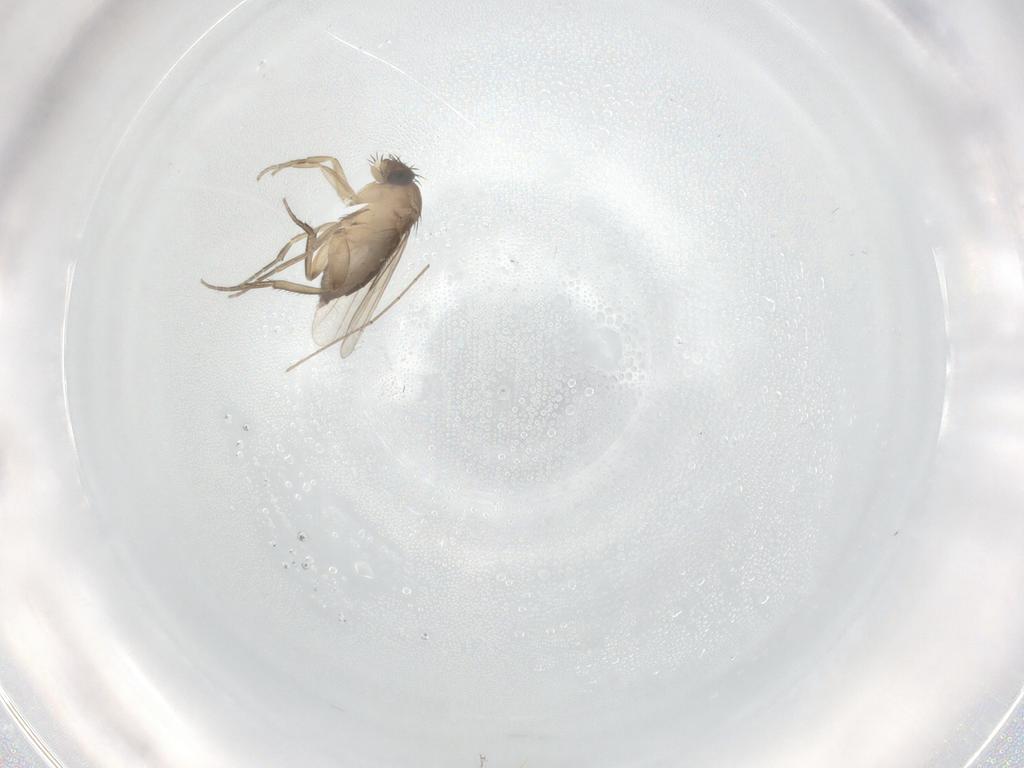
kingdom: Animalia
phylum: Arthropoda
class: Insecta
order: Diptera
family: Phoridae
